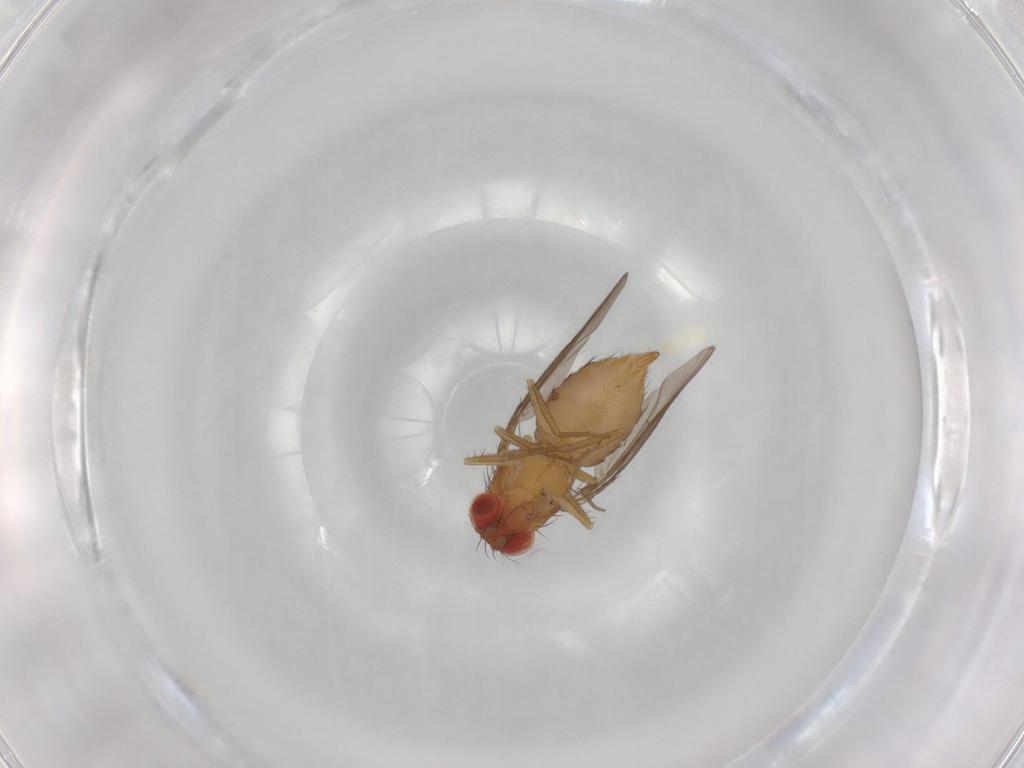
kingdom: Animalia
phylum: Arthropoda
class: Insecta
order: Diptera
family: Drosophilidae
